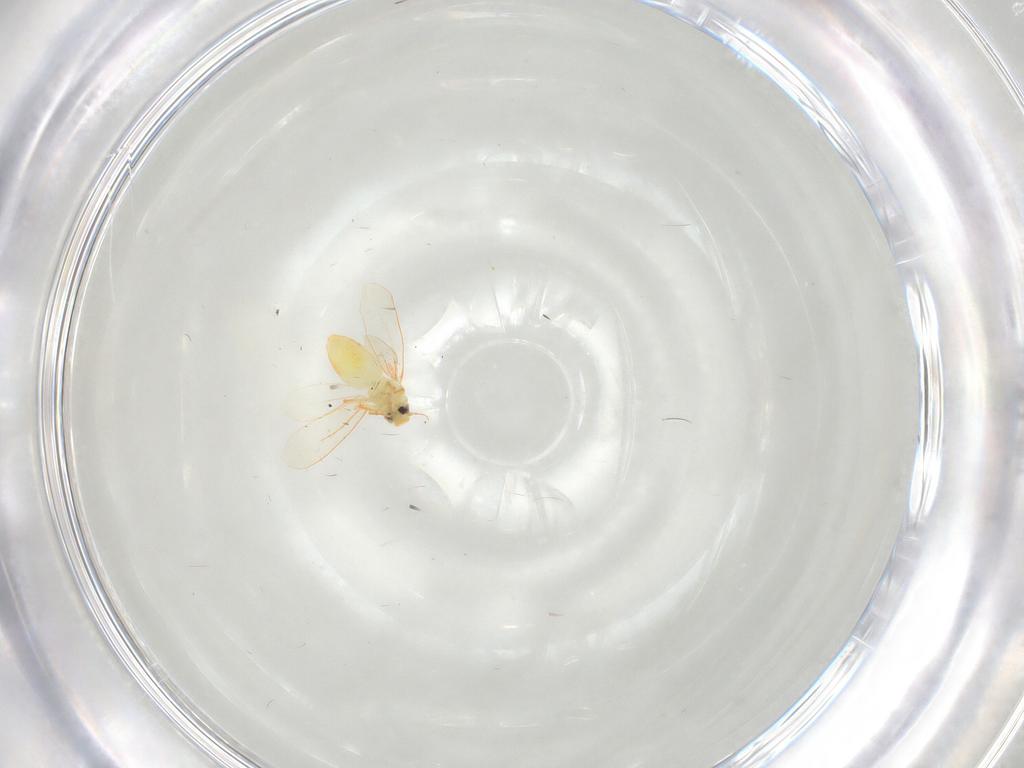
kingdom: Animalia
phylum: Arthropoda
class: Insecta
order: Hemiptera
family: Aleyrodidae
